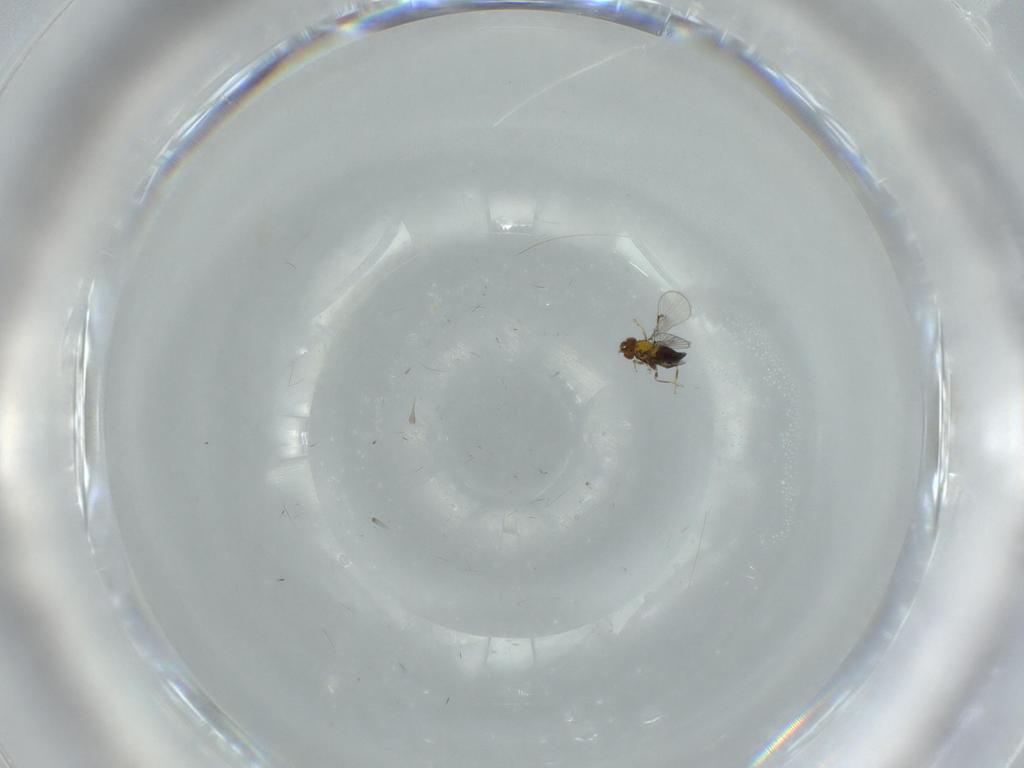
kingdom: Animalia
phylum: Arthropoda
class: Insecta
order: Hymenoptera
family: Trichogrammatidae
